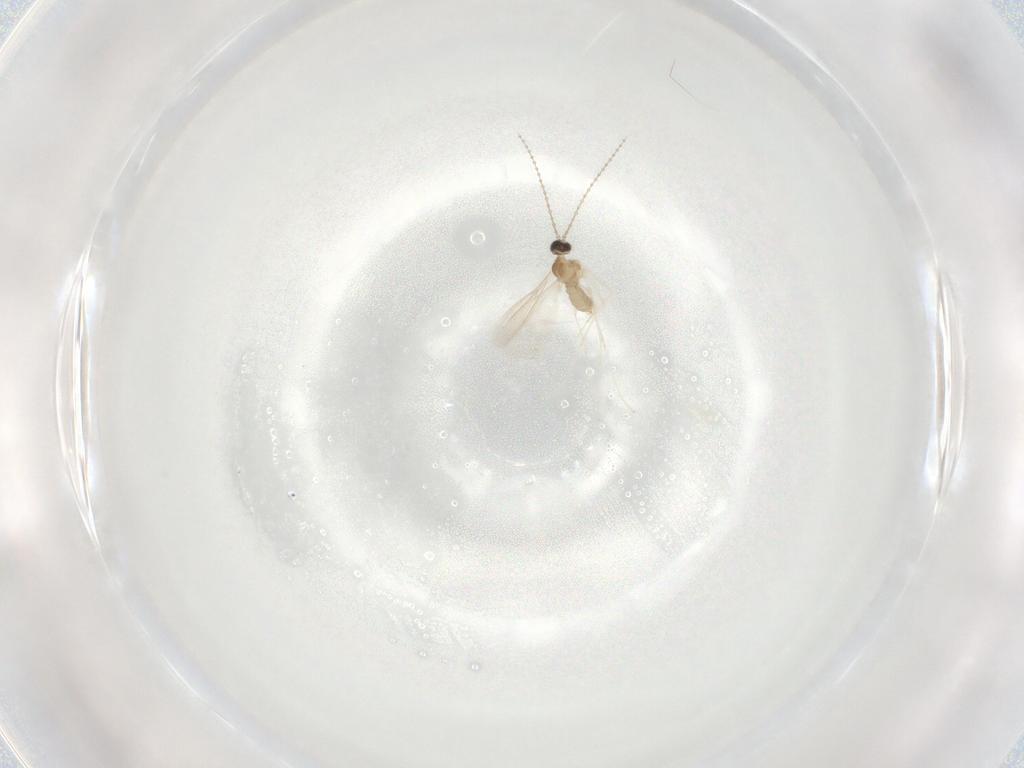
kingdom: Animalia
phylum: Arthropoda
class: Insecta
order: Diptera
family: Cecidomyiidae
